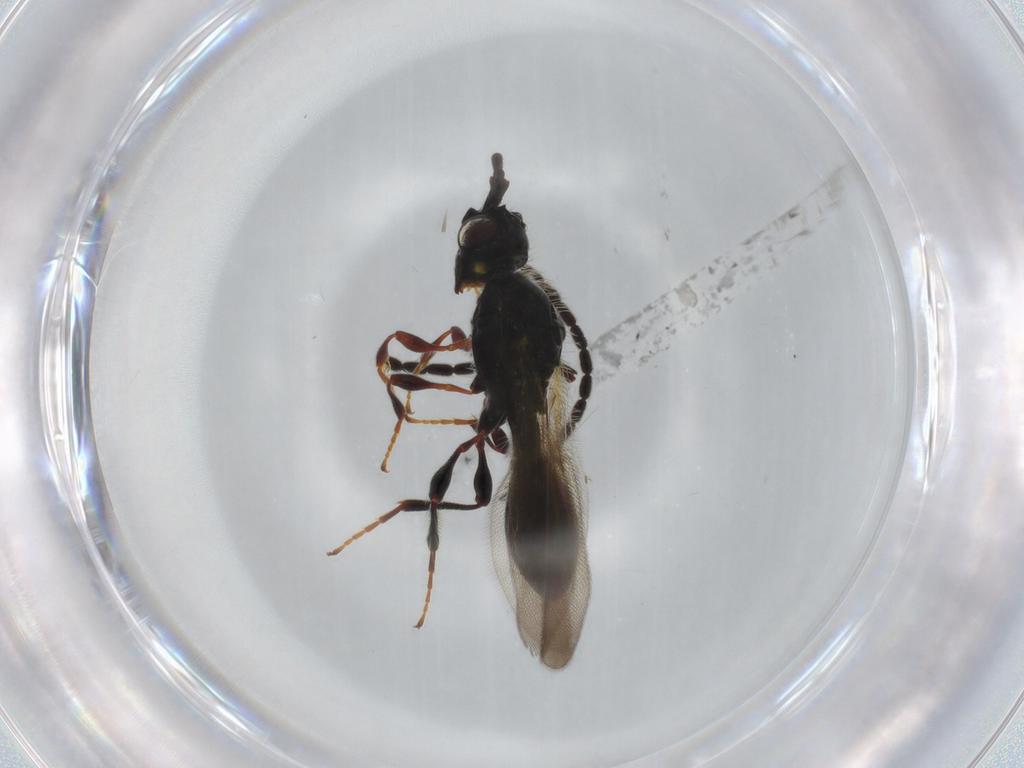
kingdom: Animalia
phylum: Arthropoda
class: Insecta
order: Hymenoptera
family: Diapriidae
